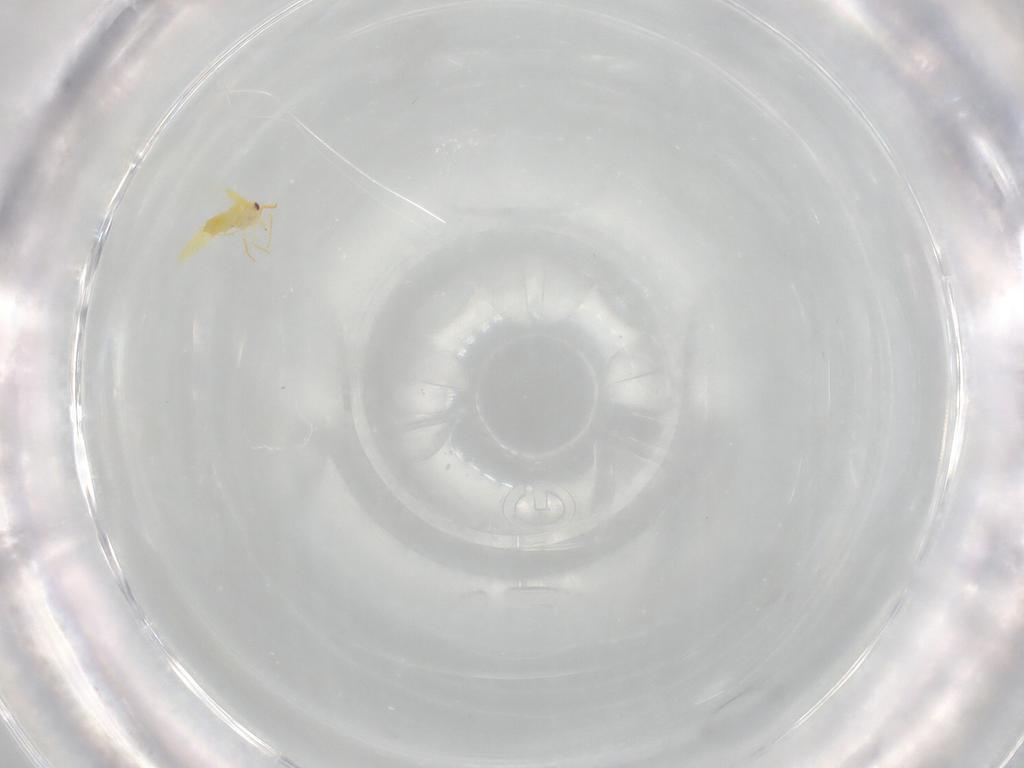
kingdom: Animalia
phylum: Arthropoda
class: Insecta
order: Hemiptera
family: Aleyrodidae
